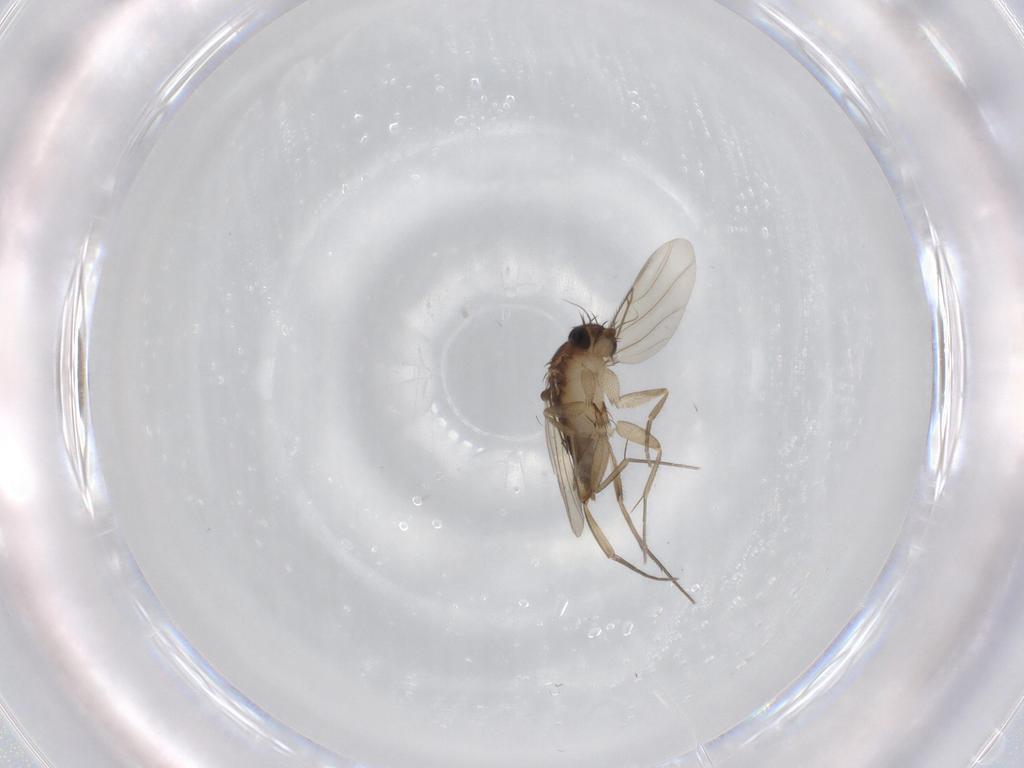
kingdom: Animalia
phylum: Arthropoda
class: Insecta
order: Diptera
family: Phoridae
